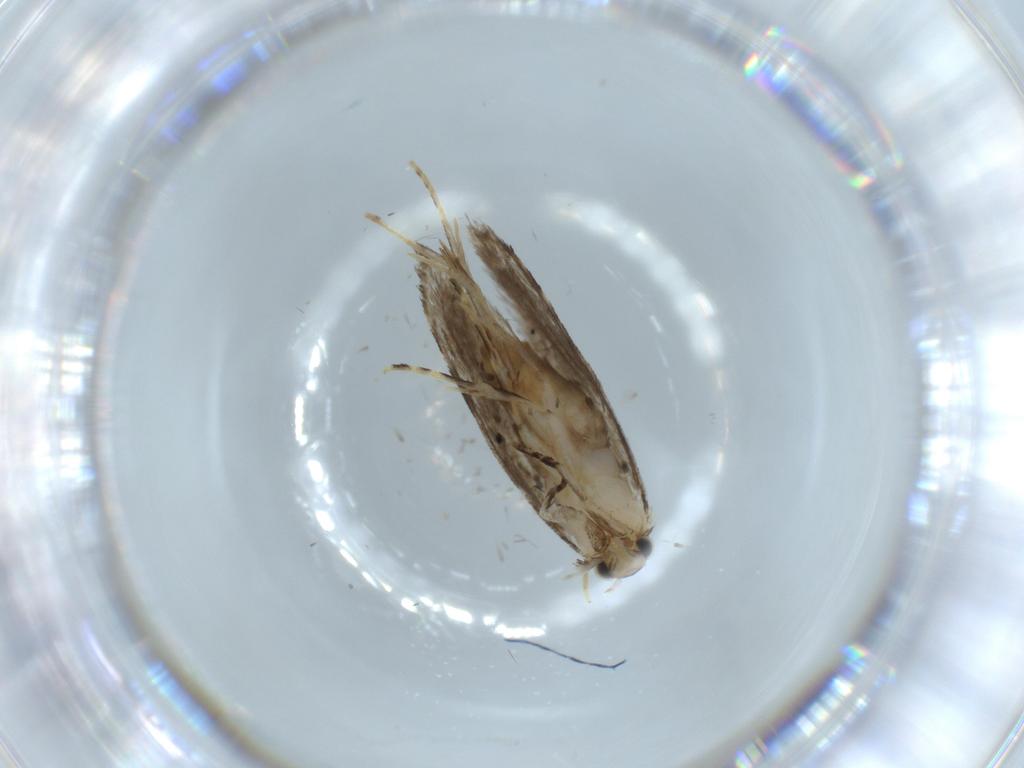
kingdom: Animalia
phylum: Arthropoda
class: Insecta
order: Lepidoptera
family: Tineidae
